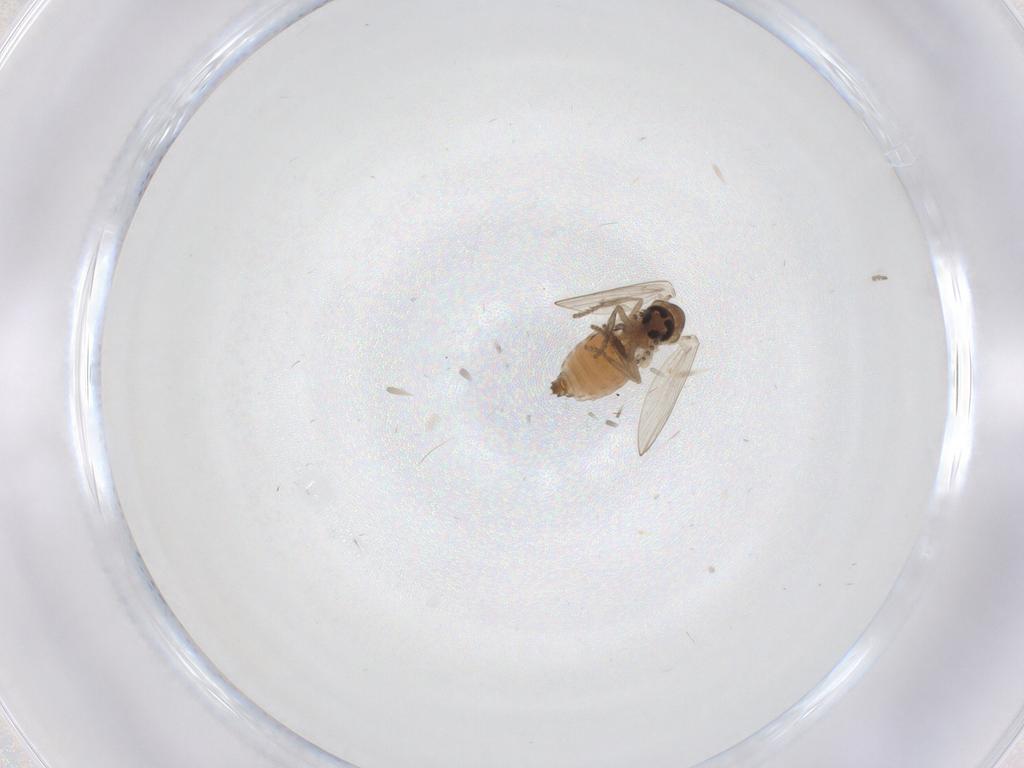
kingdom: Animalia
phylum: Arthropoda
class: Insecta
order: Diptera
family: Psychodidae
